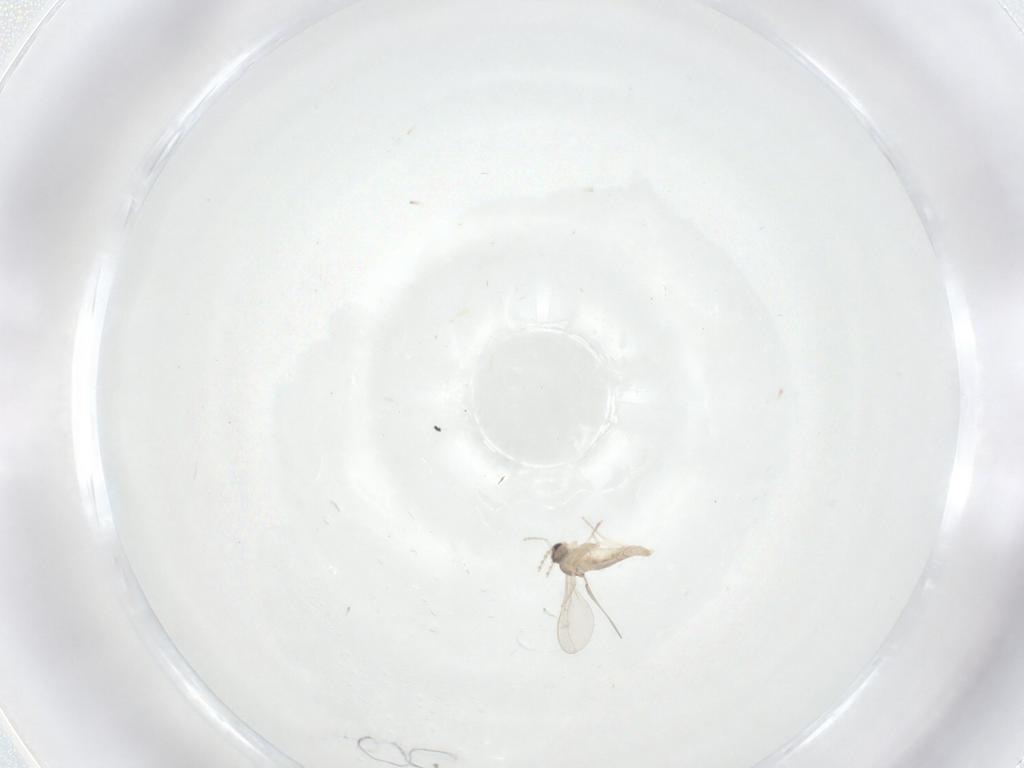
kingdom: Animalia
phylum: Arthropoda
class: Insecta
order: Diptera
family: Cecidomyiidae
